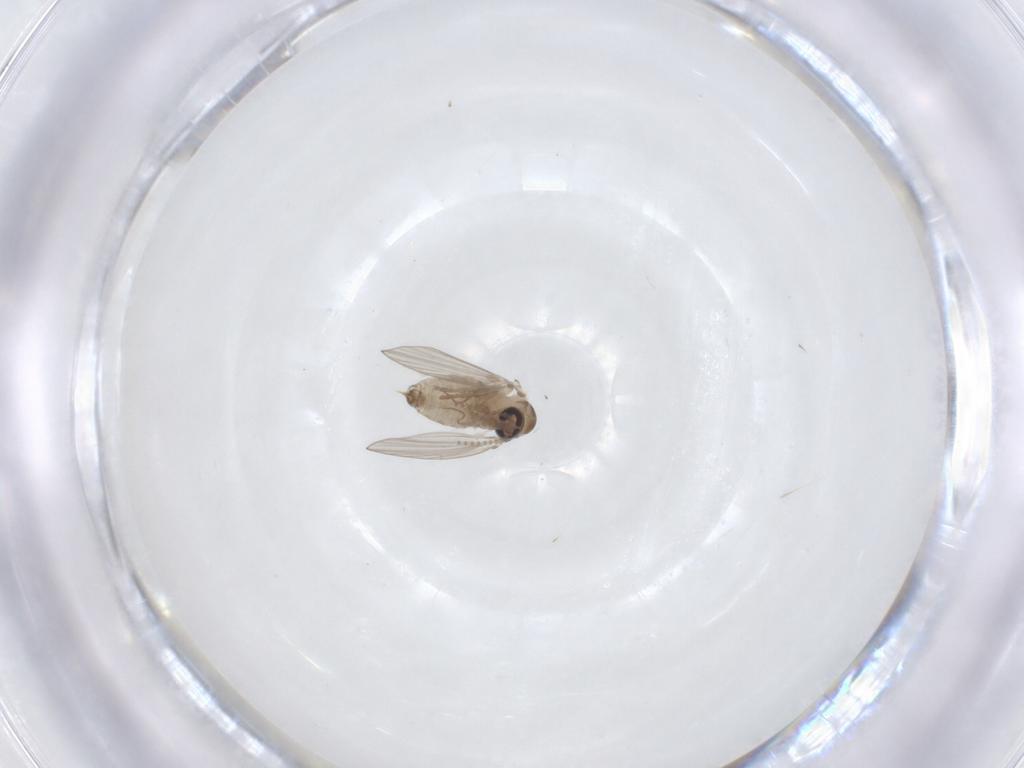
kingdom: Animalia
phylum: Arthropoda
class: Insecta
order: Diptera
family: Psychodidae
